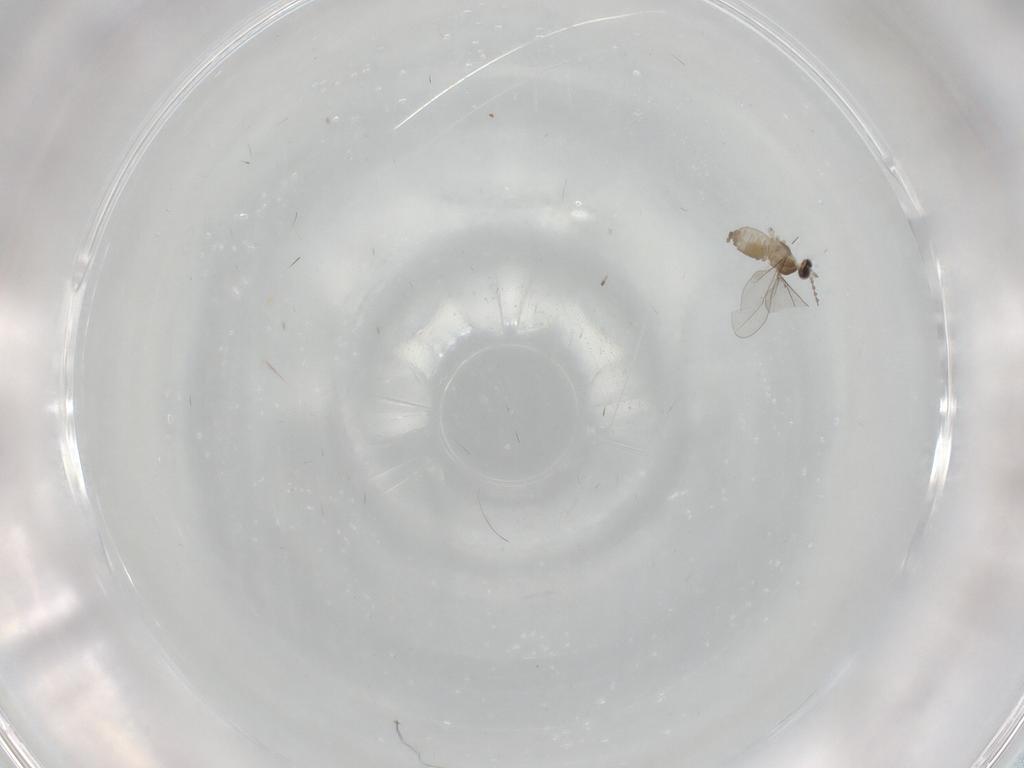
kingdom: Animalia
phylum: Arthropoda
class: Insecta
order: Diptera
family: Cecidomyiidae
